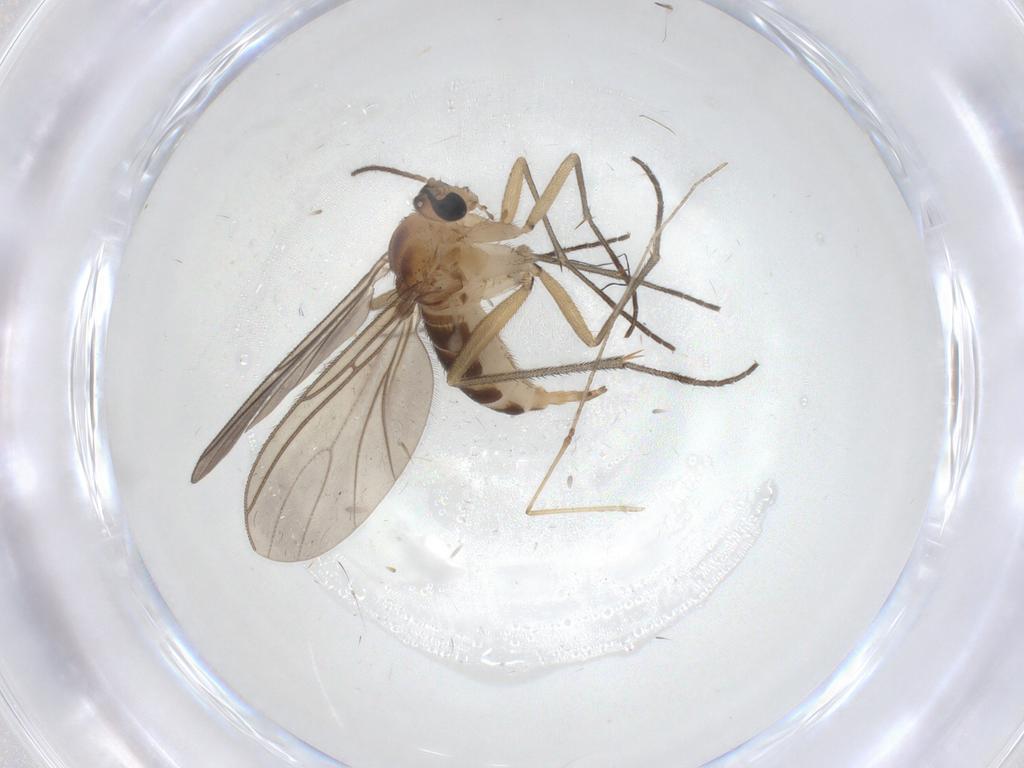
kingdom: Animalia
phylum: Arthropoda
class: Insecta
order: Diptera
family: Sciaridae
